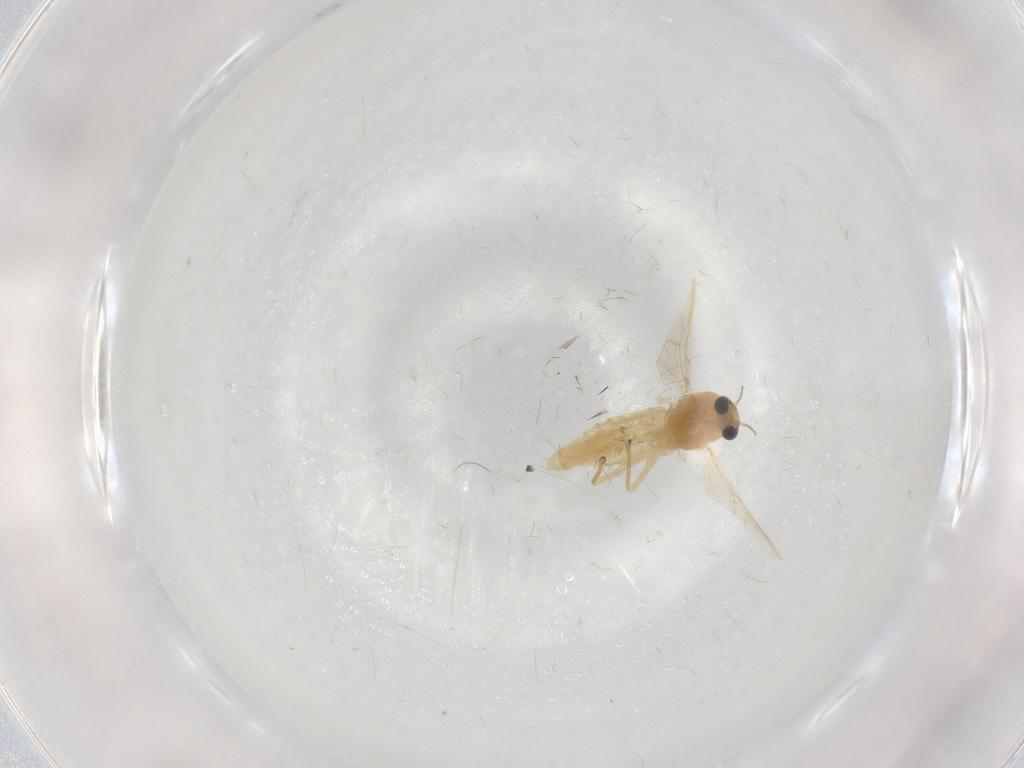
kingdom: Animalia
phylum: Arthropoda
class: Insecta
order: Diptera
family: Chironomidae
